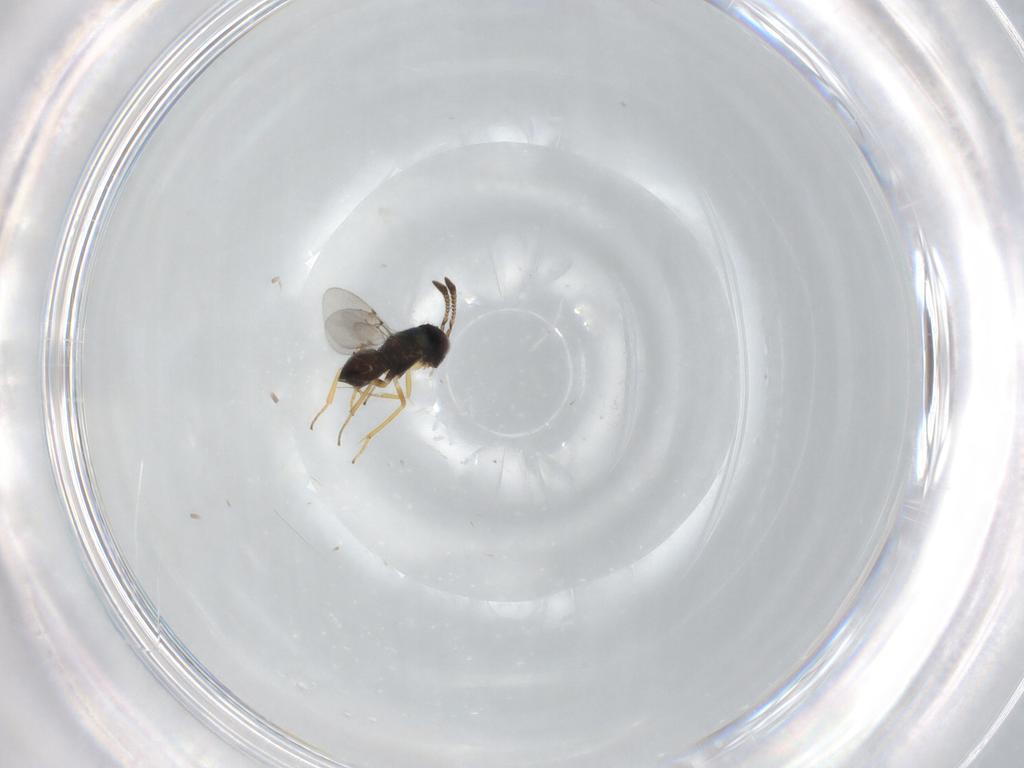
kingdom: Animalia
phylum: Arthropoda
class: Insecta
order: Hymenoptera
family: Encyrtidae
